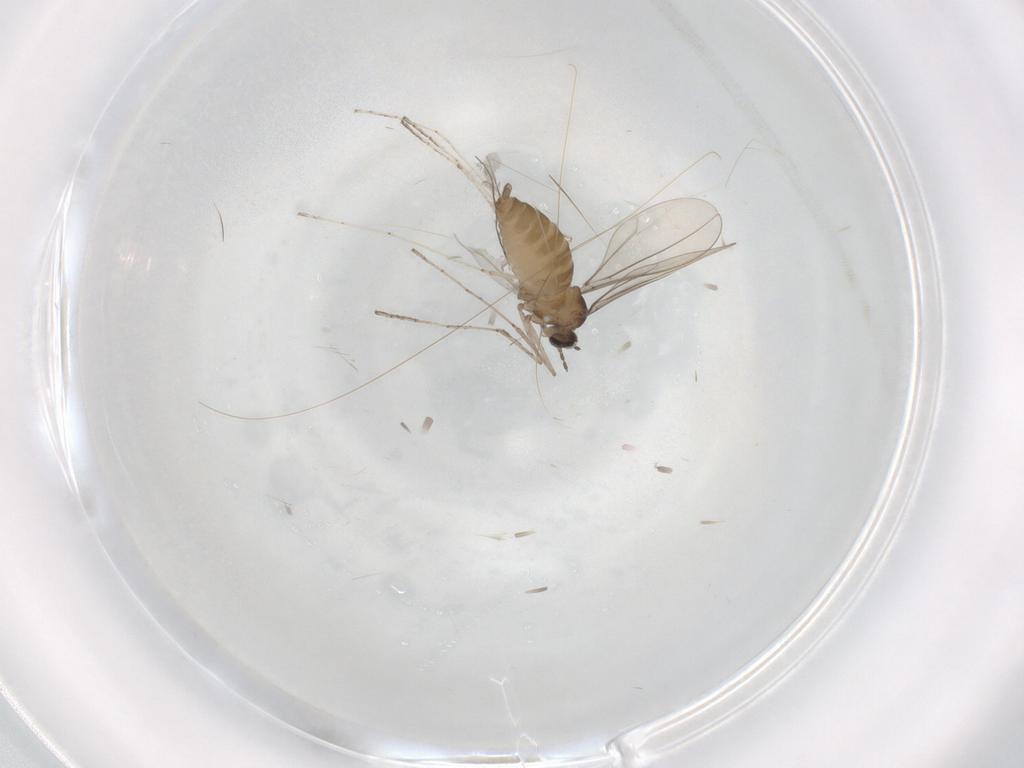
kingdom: Animalia
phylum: Arthropoda
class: Insecta
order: Diptera
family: Cecidomyiidae
